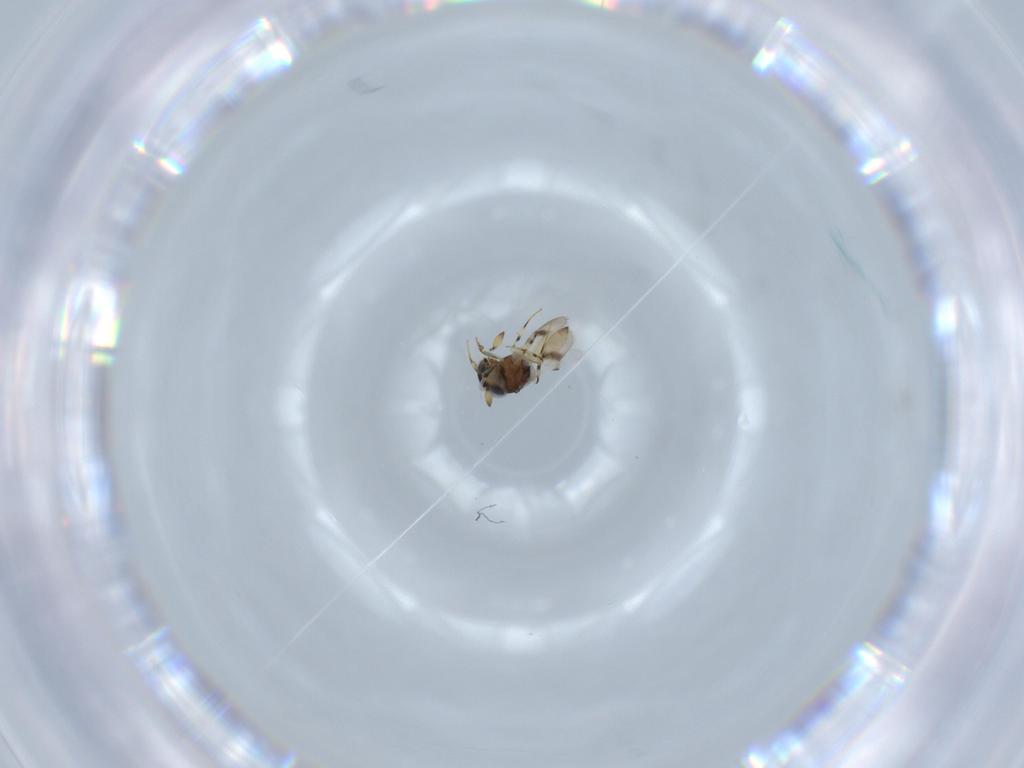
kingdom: Animalia
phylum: Arthropoda
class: Insecta
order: Hymenoptera
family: Scelionidae
